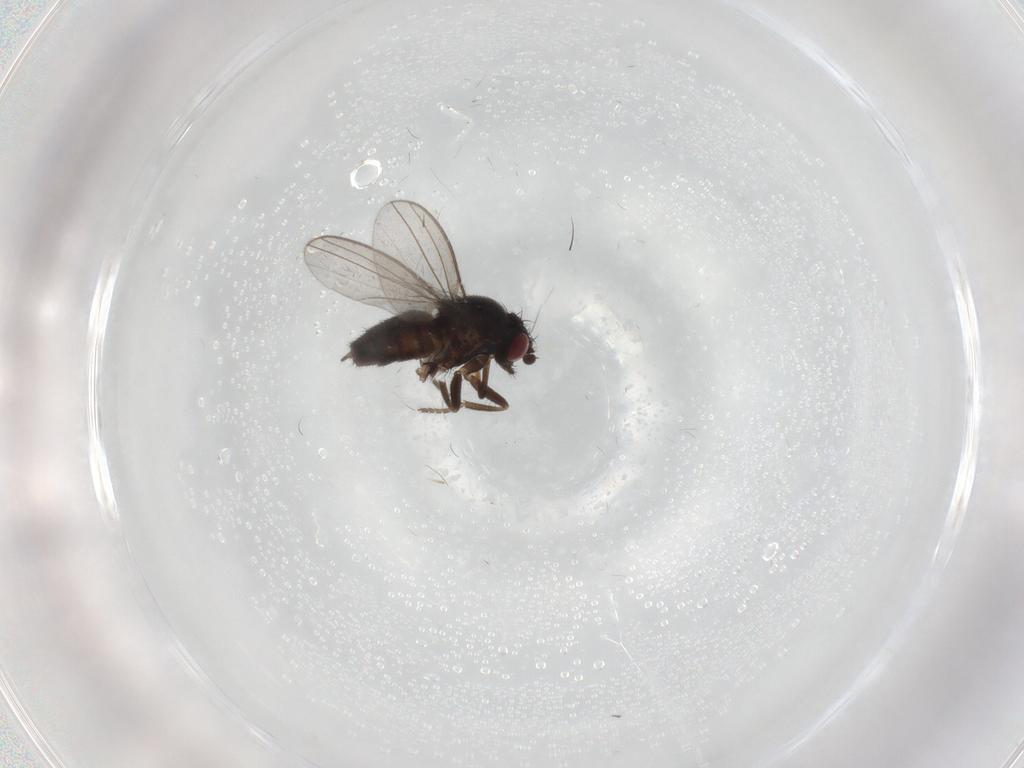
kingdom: Animalia
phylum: Arthropoda
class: Insecta
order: Diptera
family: Milichiidae
